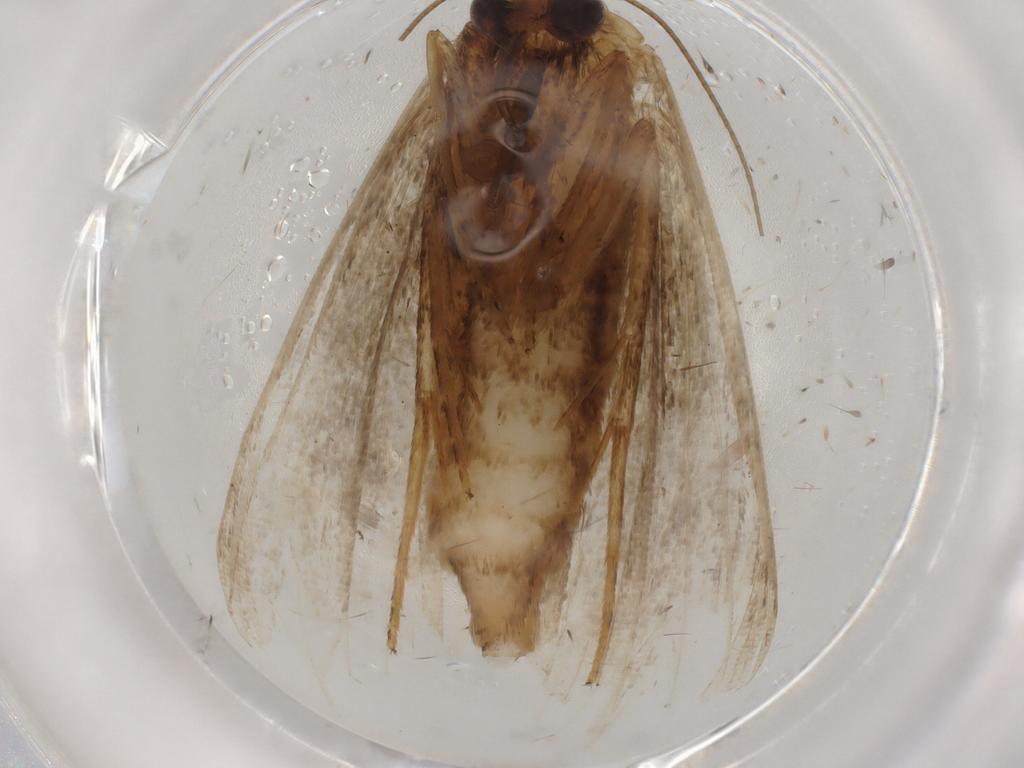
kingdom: Animalia
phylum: Arthropoda
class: Insecta
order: Lepidoptera
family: Erebidae
